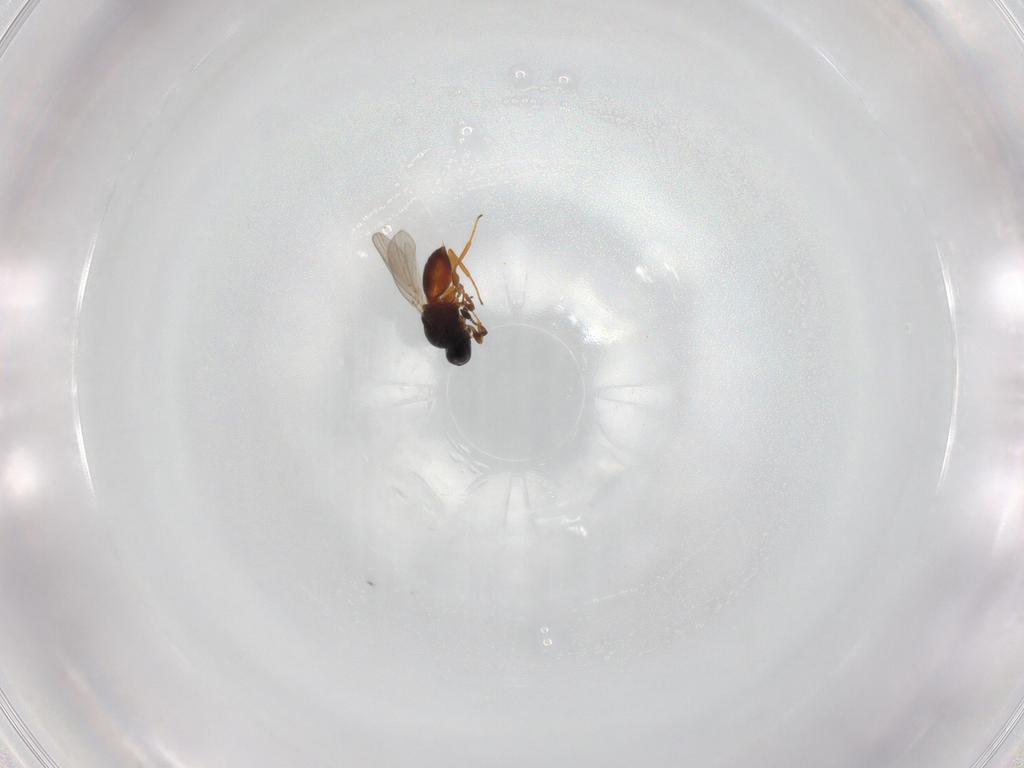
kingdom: Animalia
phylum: Arthropoda
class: Insecta
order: Hymenoptera
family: Platygastridae
